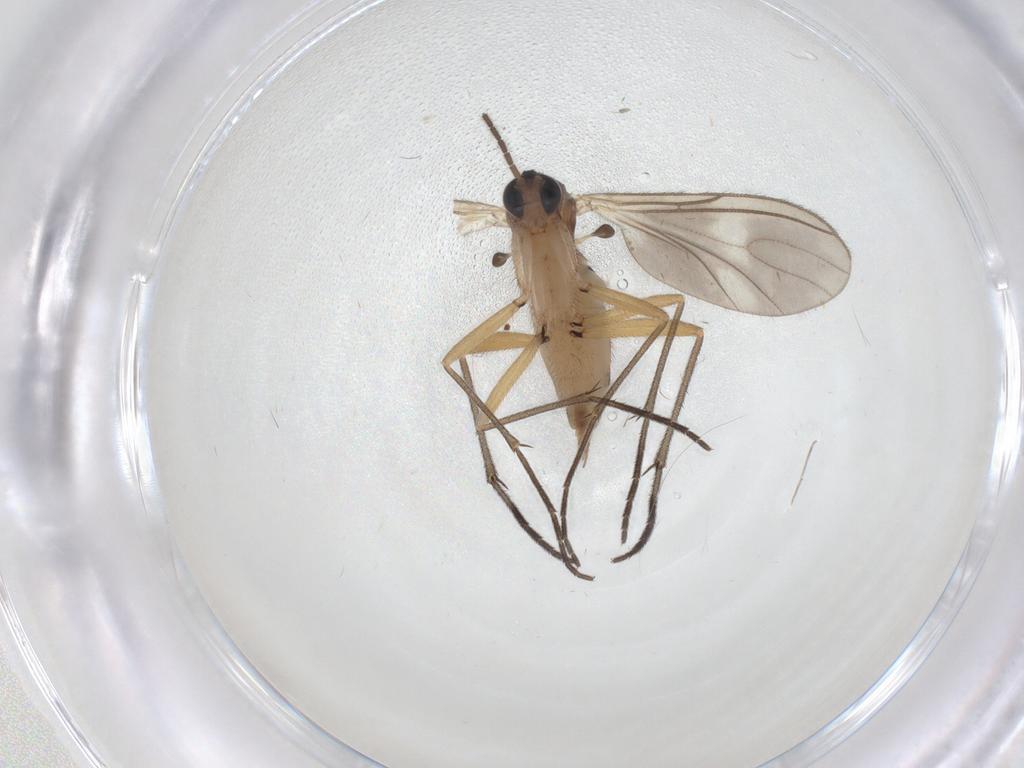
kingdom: Animalia
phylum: Arthropoda
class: Insecta
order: Diptera
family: Sciaridae
